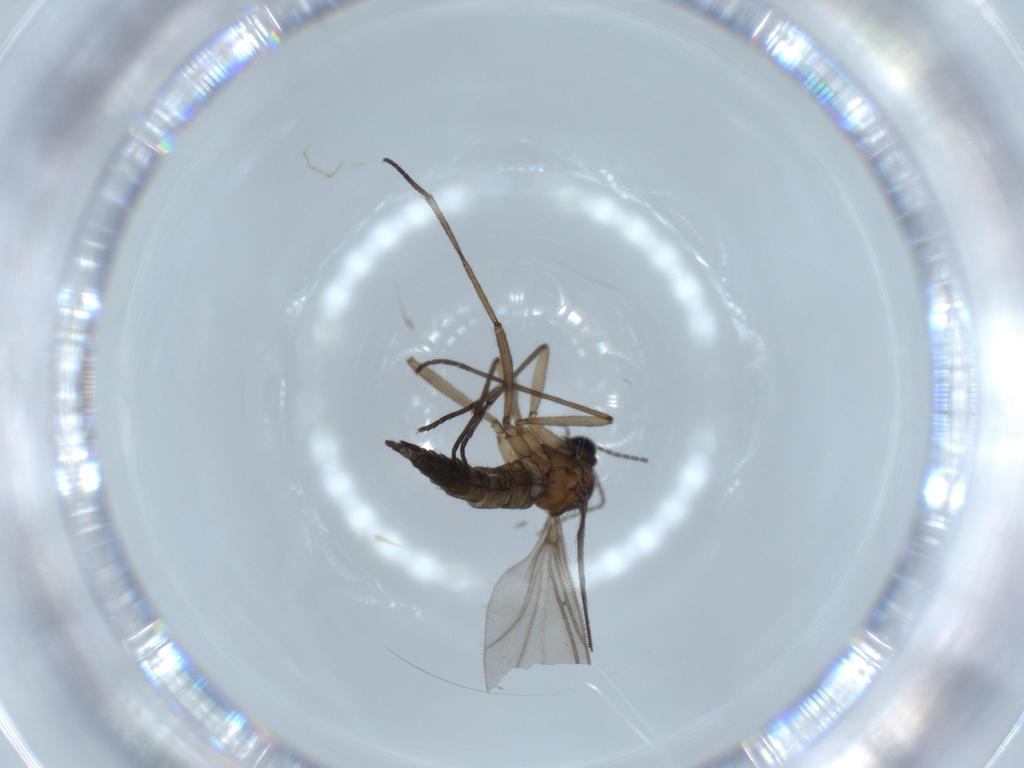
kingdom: Animalia
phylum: Arthropoda
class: Insecta
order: Diptera
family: Sciaridae
